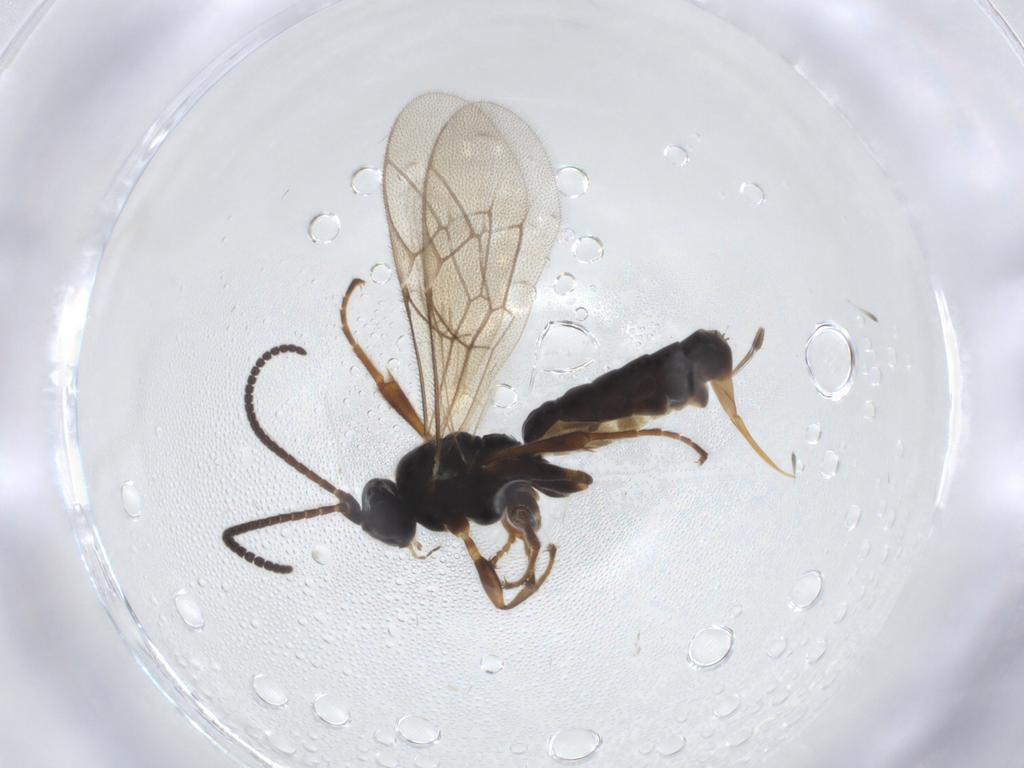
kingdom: Animalia
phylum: Arthropoda
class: Insecta
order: Hymenoptera
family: Ichneumonidae
